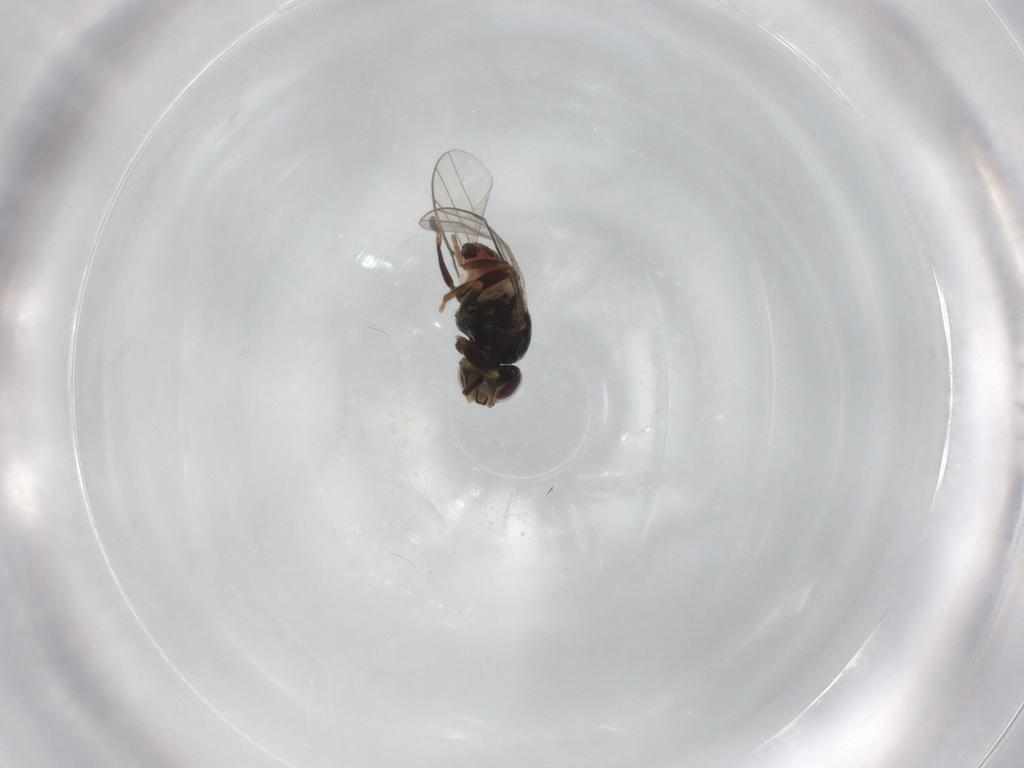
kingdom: Animalia
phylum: Arthropoda
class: Insecta
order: Diptera
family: Chloropidae
